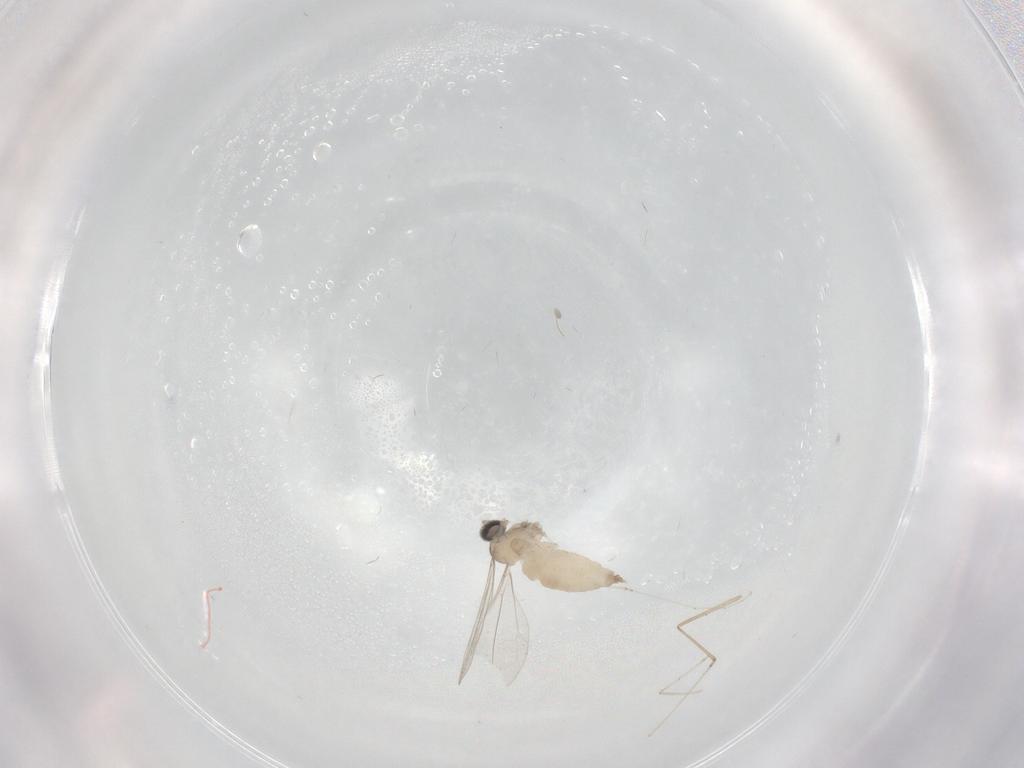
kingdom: Animalia
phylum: Arthropoda
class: Insecta
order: Diptera
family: Cecidomyiidae
